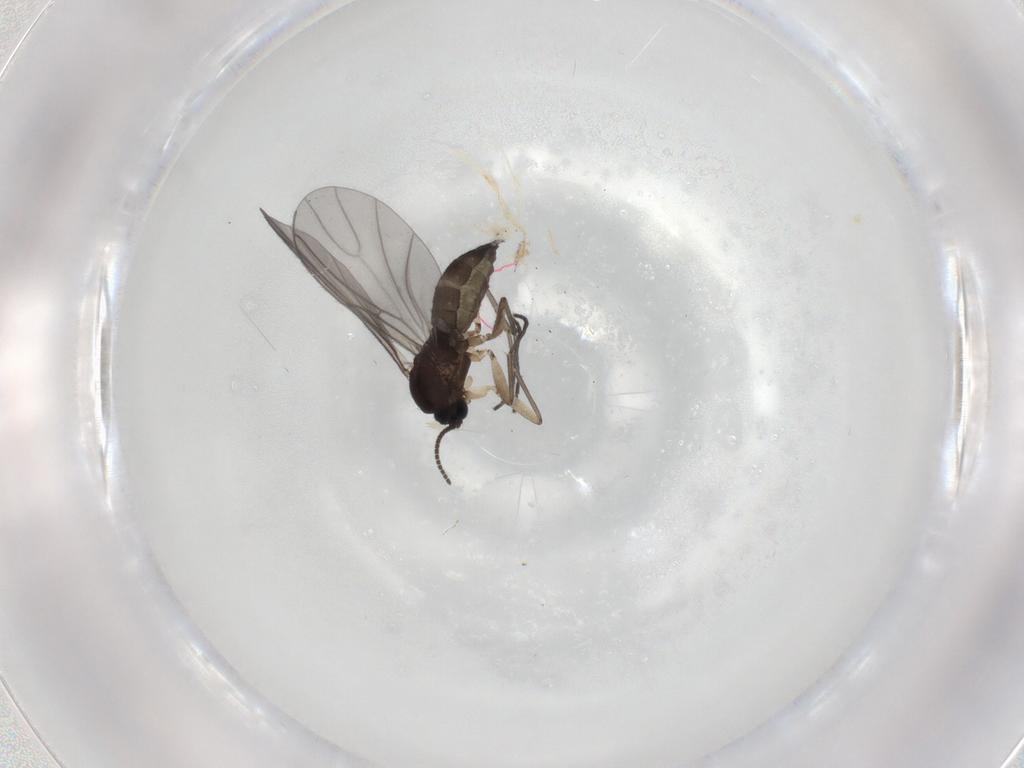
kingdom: Animalia
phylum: Arthropoda
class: Insecta
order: Diptera
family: Sciaridae
